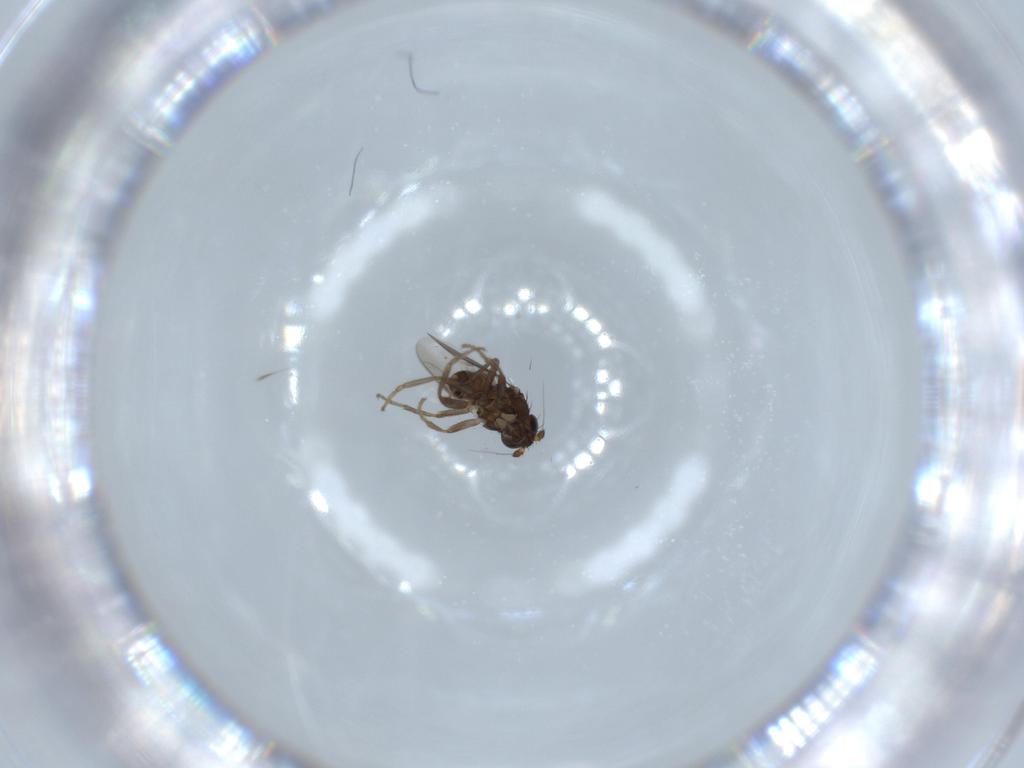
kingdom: Animalia
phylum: Arthropoda
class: Insecta
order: Diptera
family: Sphaeroceridae
